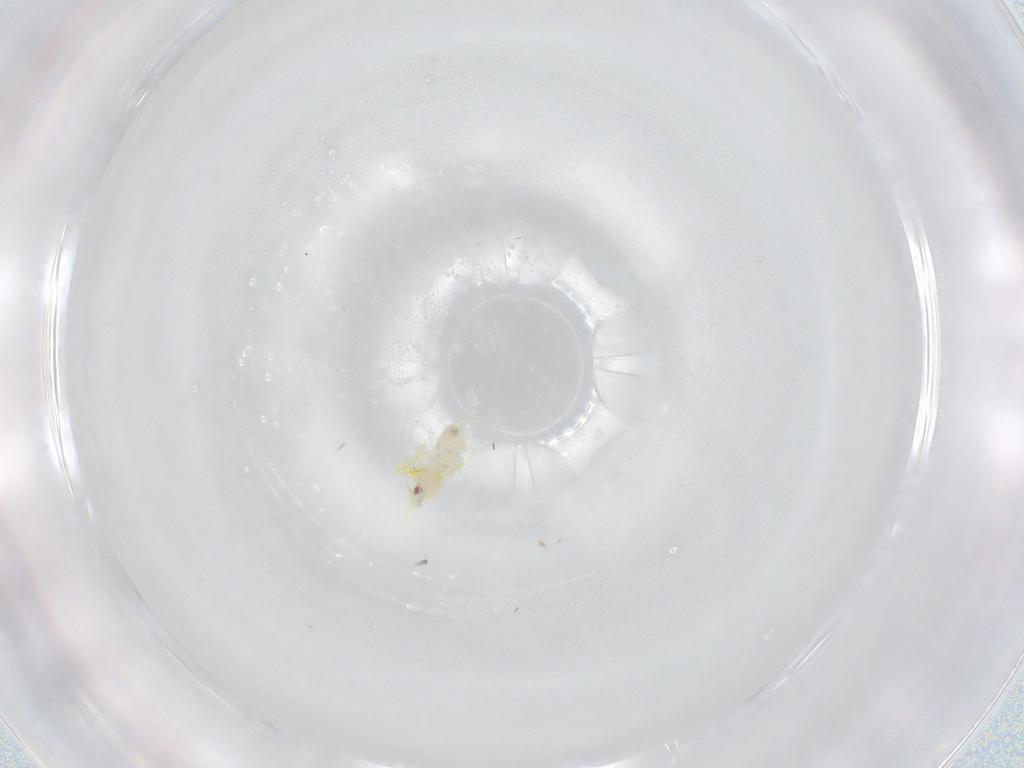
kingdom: Animalia
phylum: Arthropoda
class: Insecta
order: Hemiptera
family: Aleyrodidae
